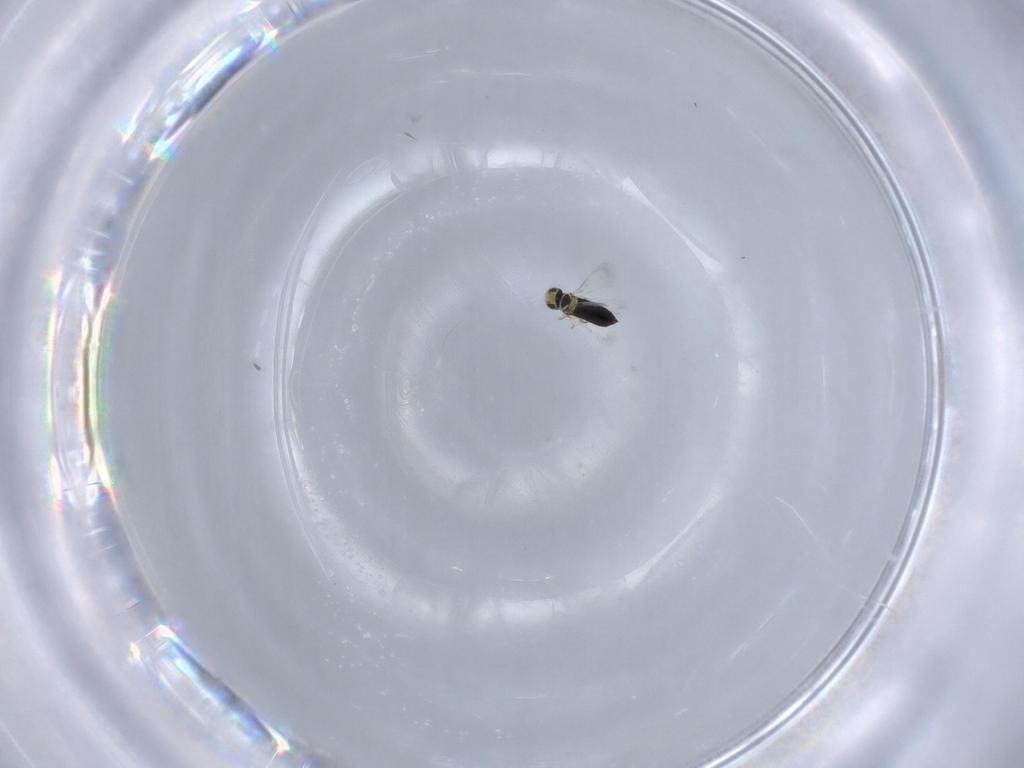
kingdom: Animalia
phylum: Arthropoda
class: Insecta
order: Hymenoptera
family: Signiphoridae
